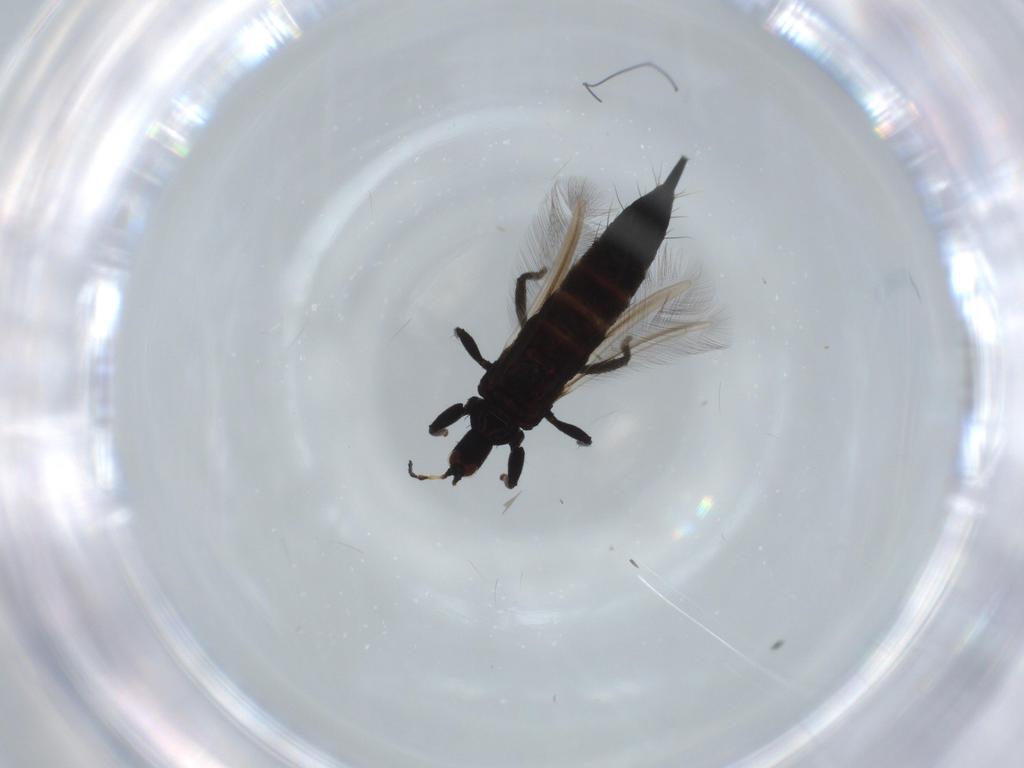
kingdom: Animalia
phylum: Arthropoda
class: Insecta
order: Thysanoptera
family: Phlaeothripidae
